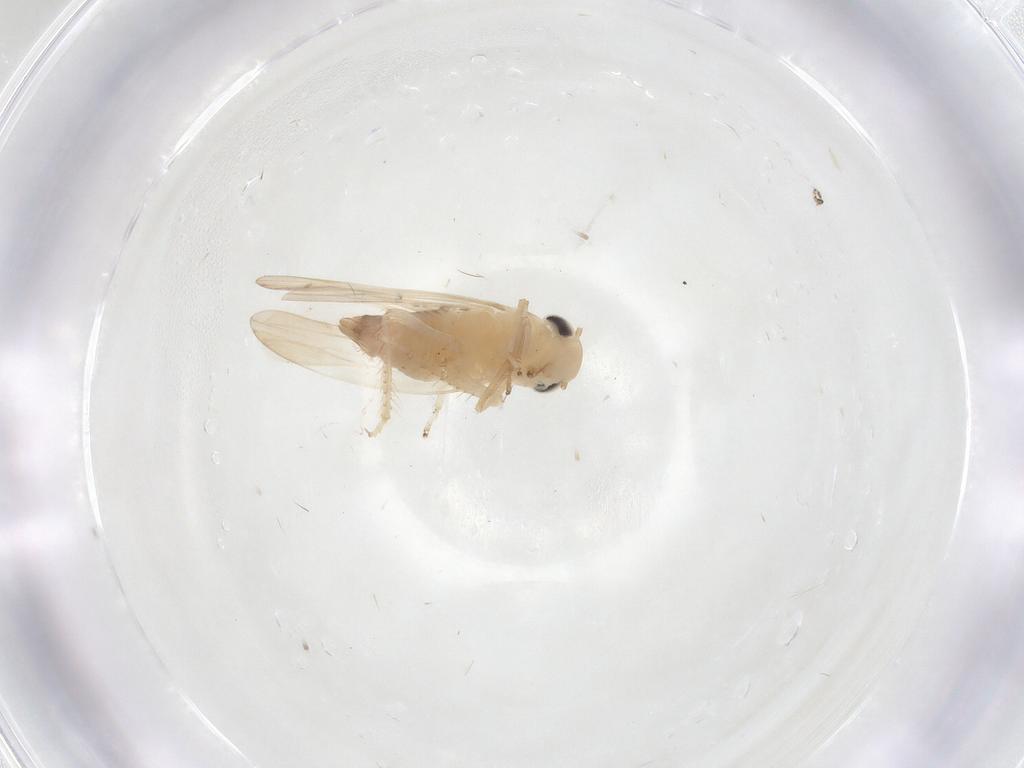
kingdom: Animalia
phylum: Arthropoda
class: Insecta
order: Hemiptera
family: Cicadellidae
